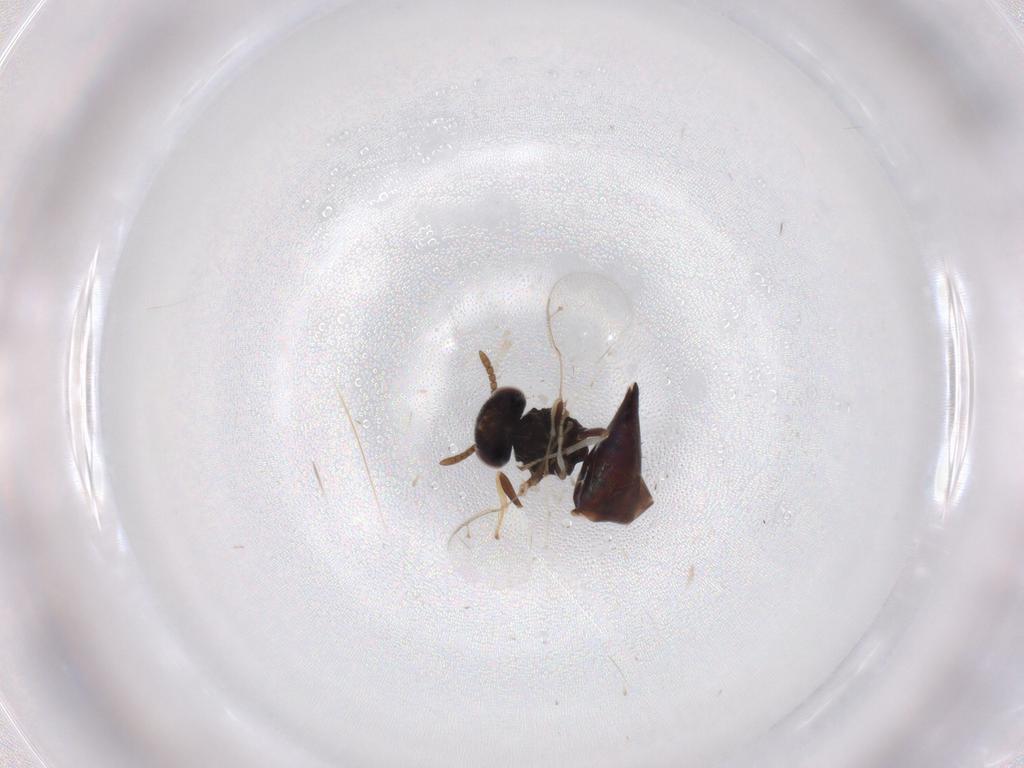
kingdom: Animalia
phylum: Arthropoda
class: Insecta
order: Hymenoptera
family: Pteromalidae
